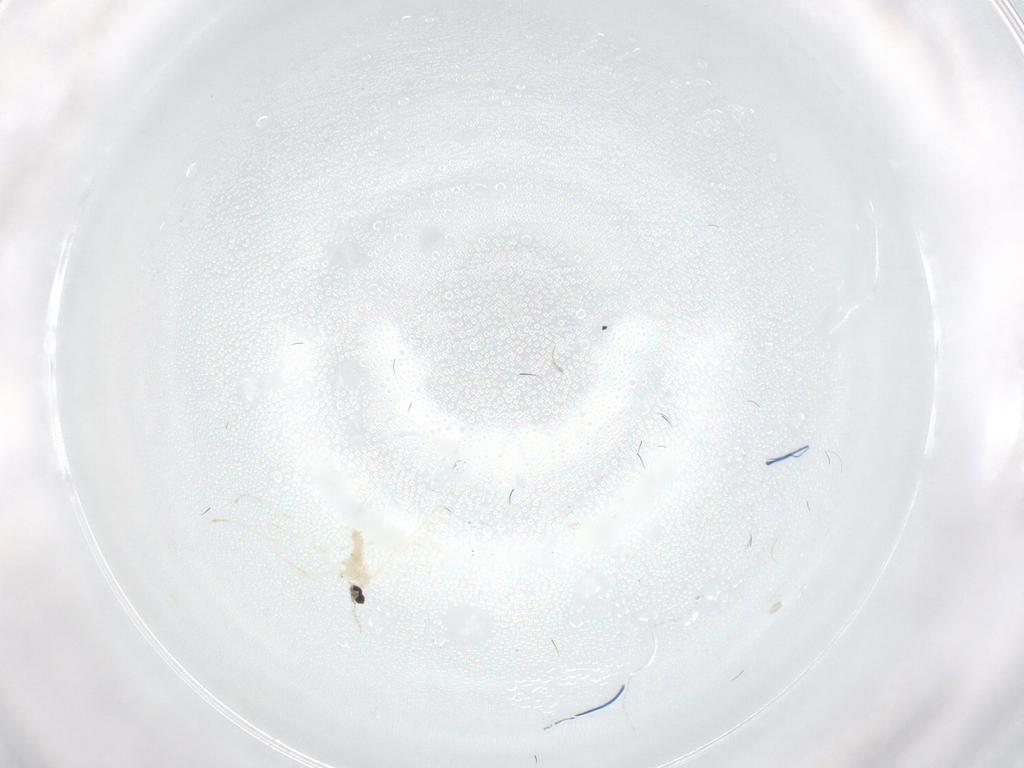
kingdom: Animalia
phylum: Arthropoda
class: Insecta
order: Diptera
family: Cecidomyiidae
